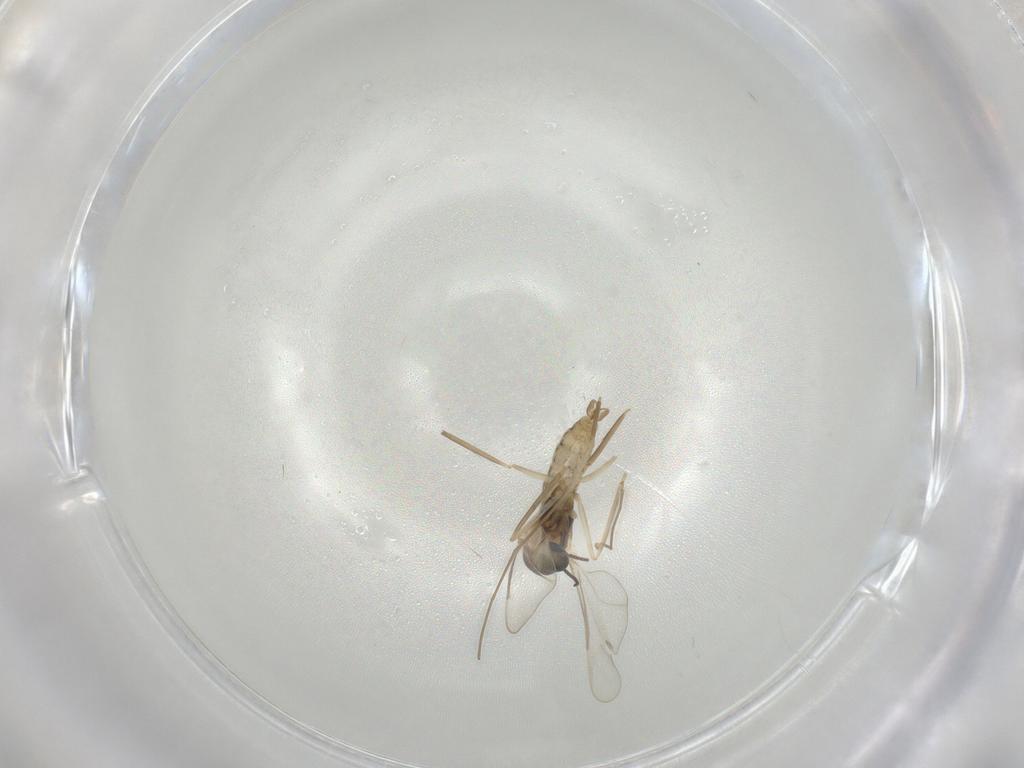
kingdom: Animalia
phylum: Arthropoda
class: Insecta
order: Diptera
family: Cecidomyiidae
